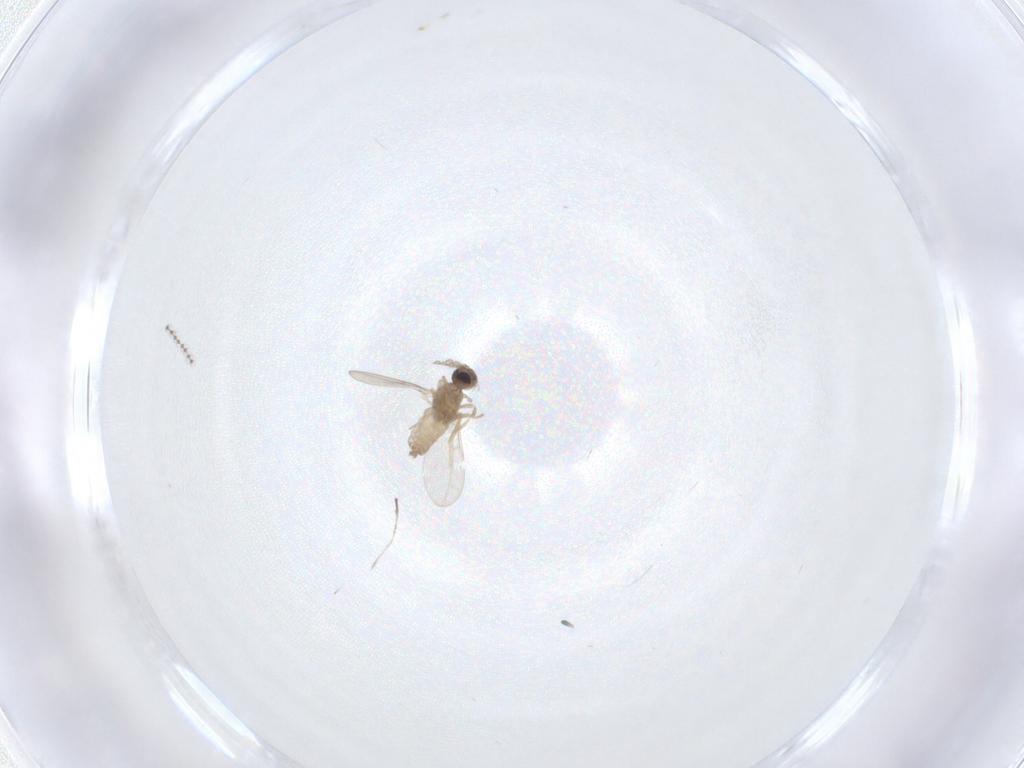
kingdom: Animalia
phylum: Arthropoda
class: Insecta
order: Diptera
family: Cecidomyiidae
